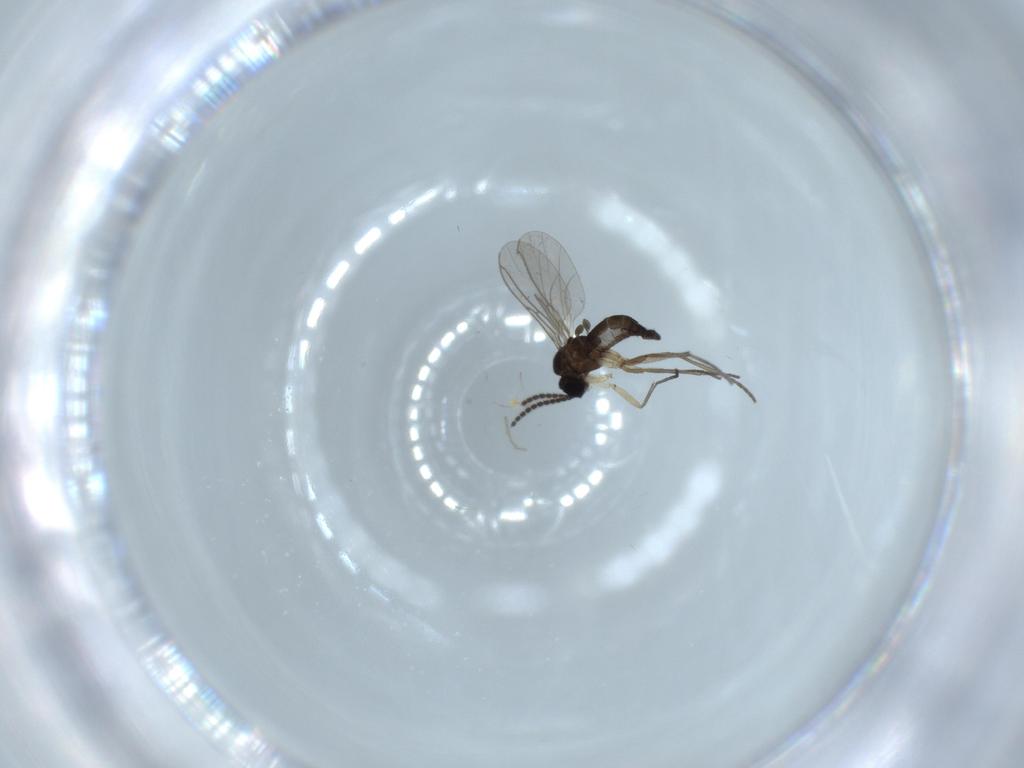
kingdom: Animalia
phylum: Arthropoda
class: Insecta
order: Diptera
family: Sciaridae
